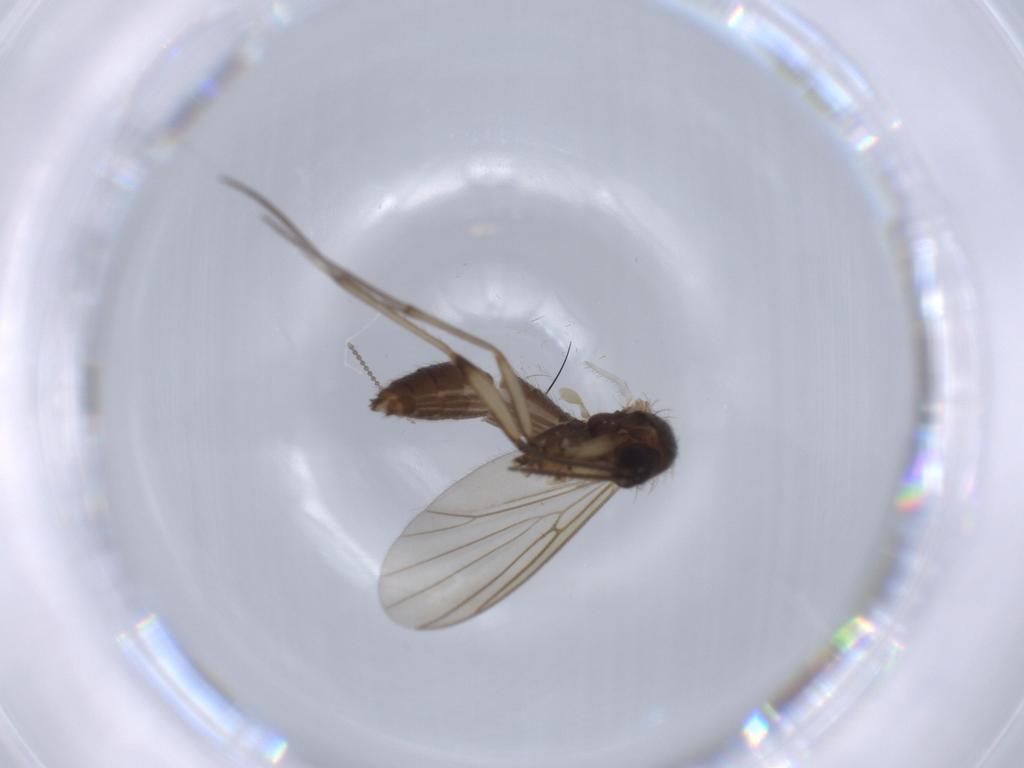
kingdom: Animalia
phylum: Arthropoda
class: Insecta
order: Diptera
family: Mycetophilidae
